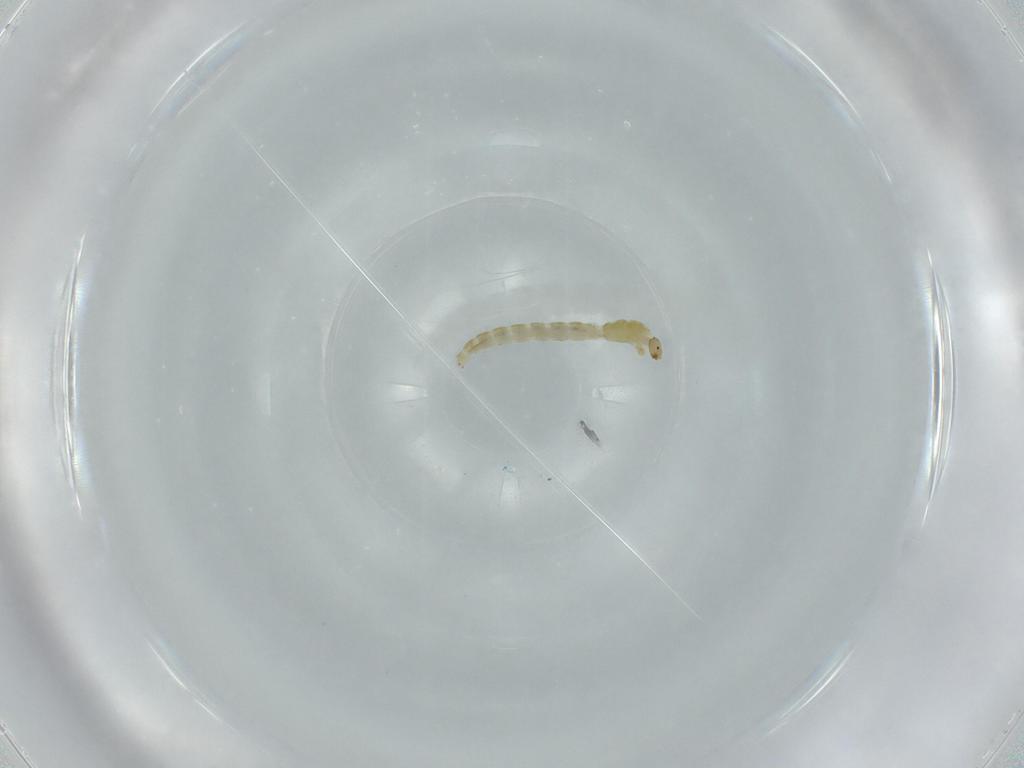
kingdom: Animalia
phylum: Arthropoda
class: Insecta
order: Diptera
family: Chironomidae
